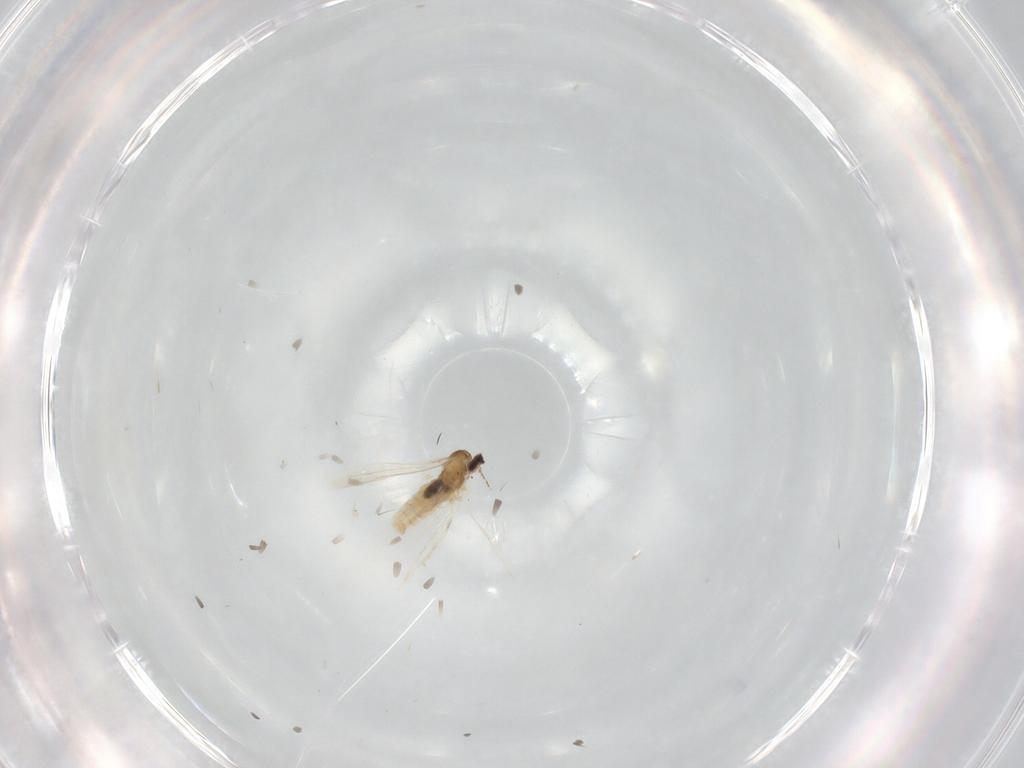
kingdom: Animalia
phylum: Arthropoda
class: Insecta
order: Diptera
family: Cecidomyiidae
